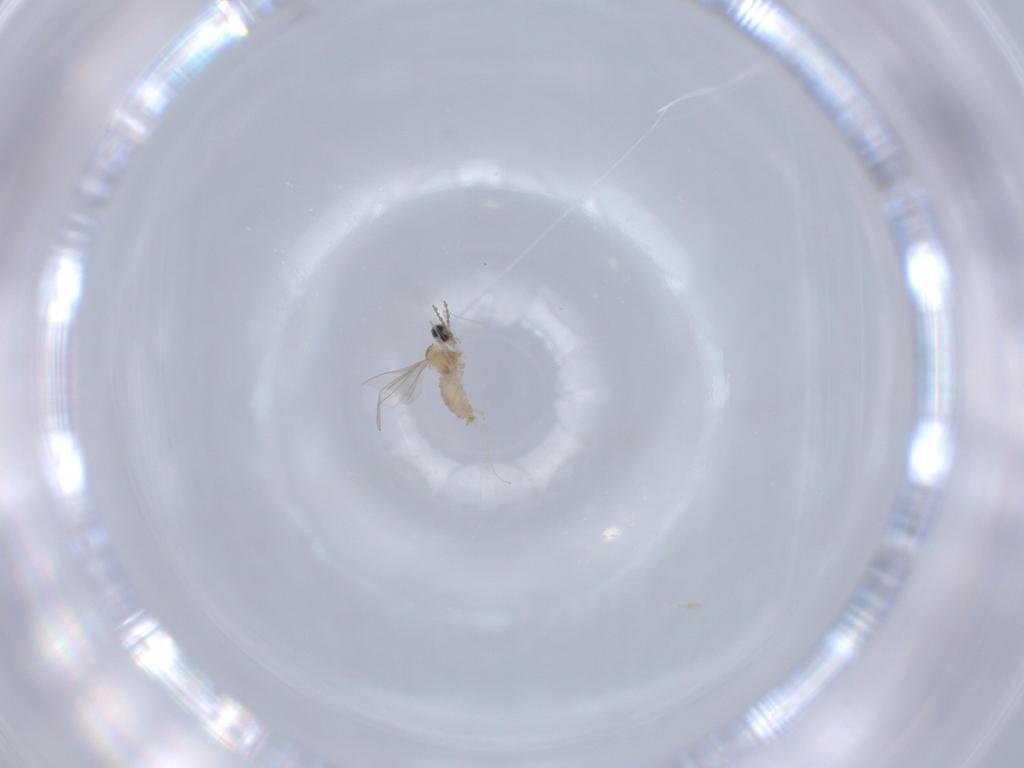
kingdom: Animalia
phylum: Arthropoda
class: Insecta
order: Diptera
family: Cecidomyiidae
